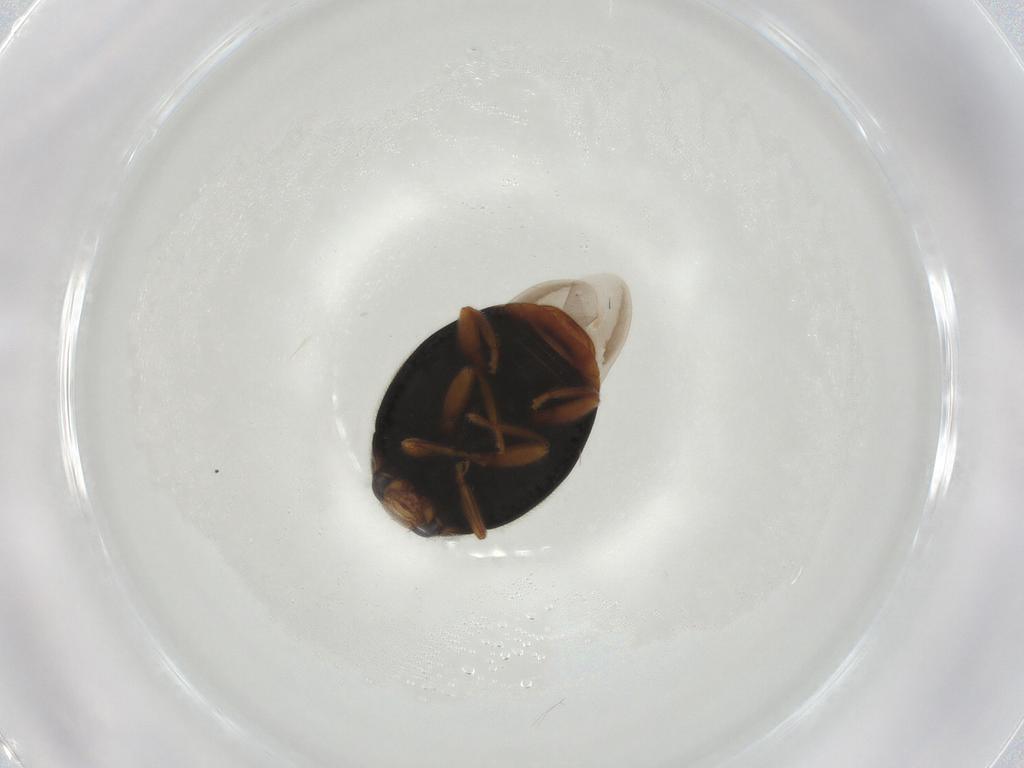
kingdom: Animalia
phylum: Arthropoda
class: Insecta
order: Coleoptera
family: Coccinellidae
